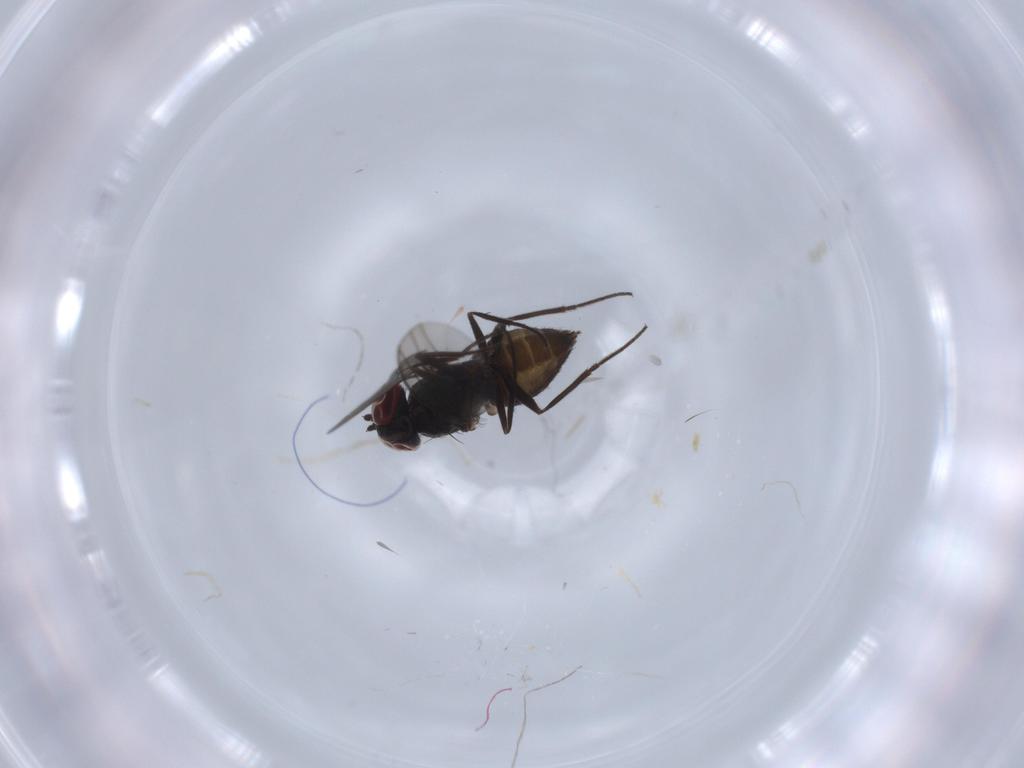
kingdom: Animalia
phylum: Arthropoda
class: Insecta
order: Diptera
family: Dolichopodidae
